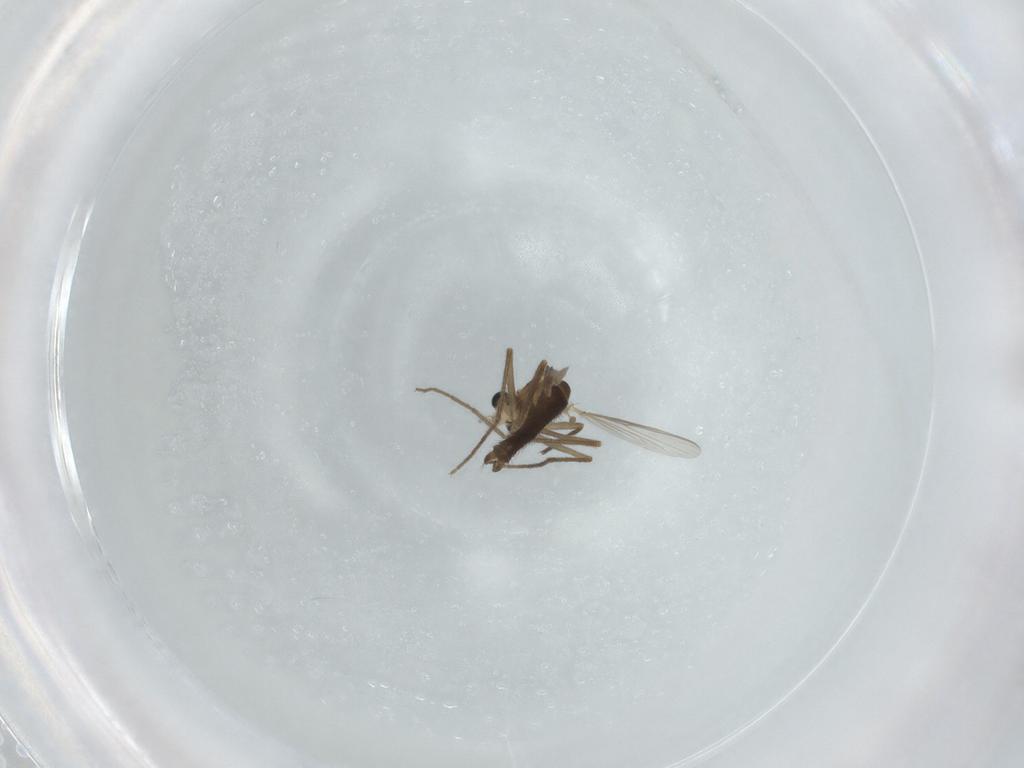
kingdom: Animalia
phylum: Arthropoda
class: Insecta
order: Diptera
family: Chironomidae
